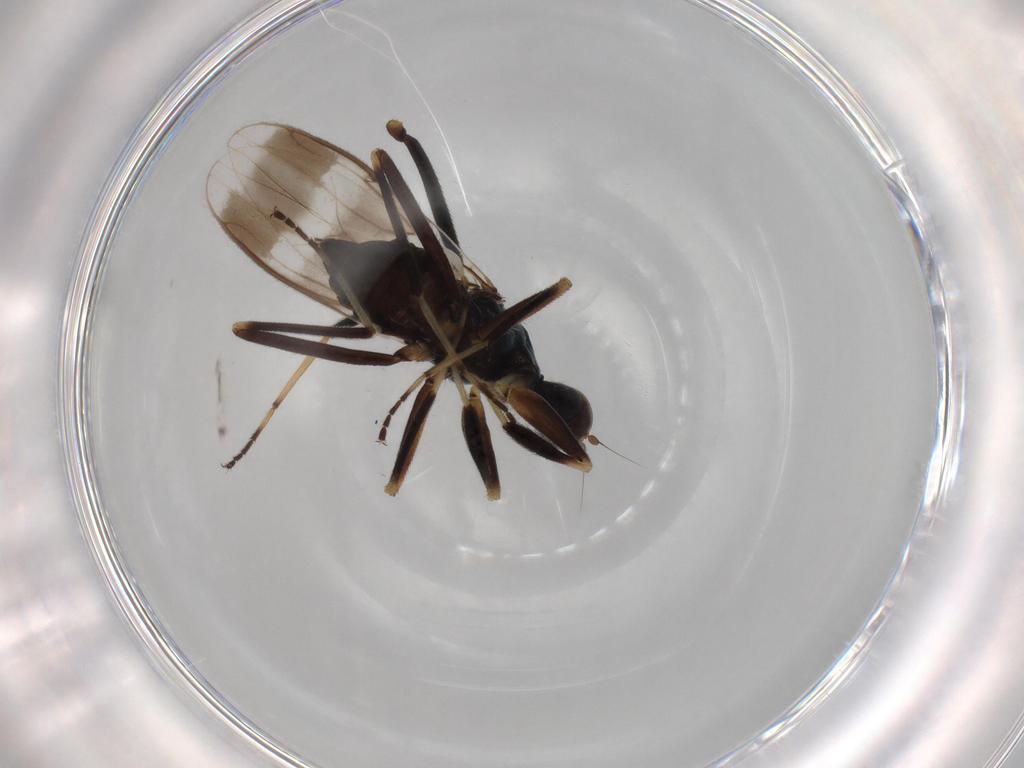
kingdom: Animalia
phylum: Arthropoda
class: Insecta
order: Diptera
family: Hybotidae
